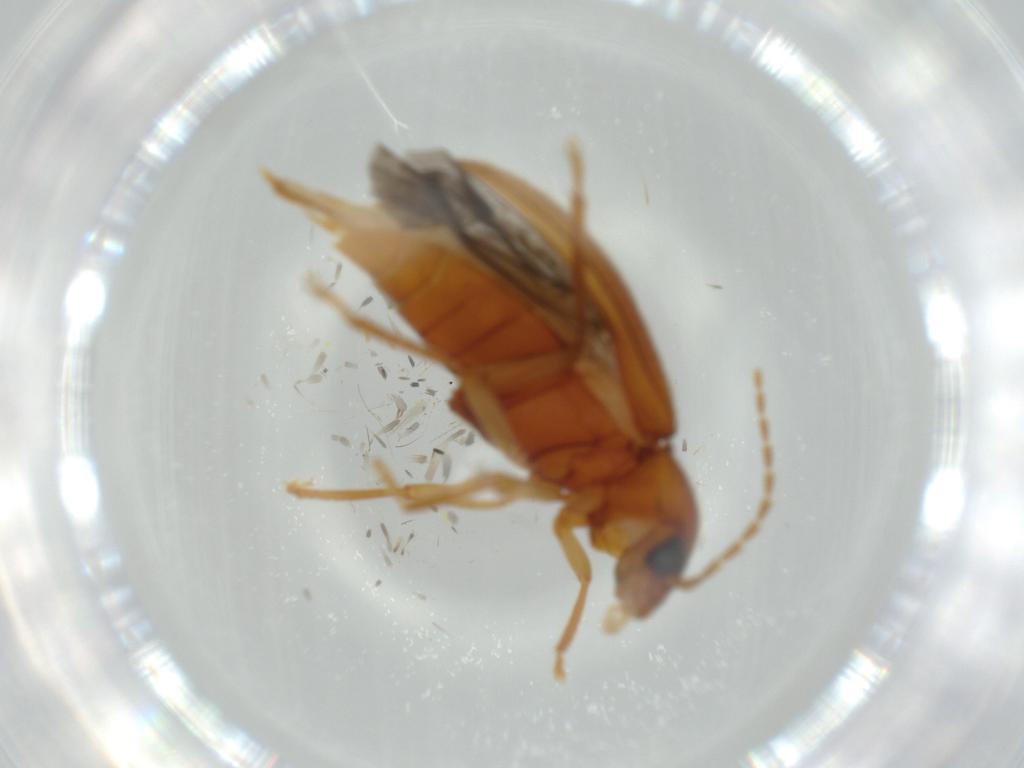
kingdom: Animalia
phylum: Arthropoda
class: Insecta
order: Coleoptera
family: Ptilodactylidae
